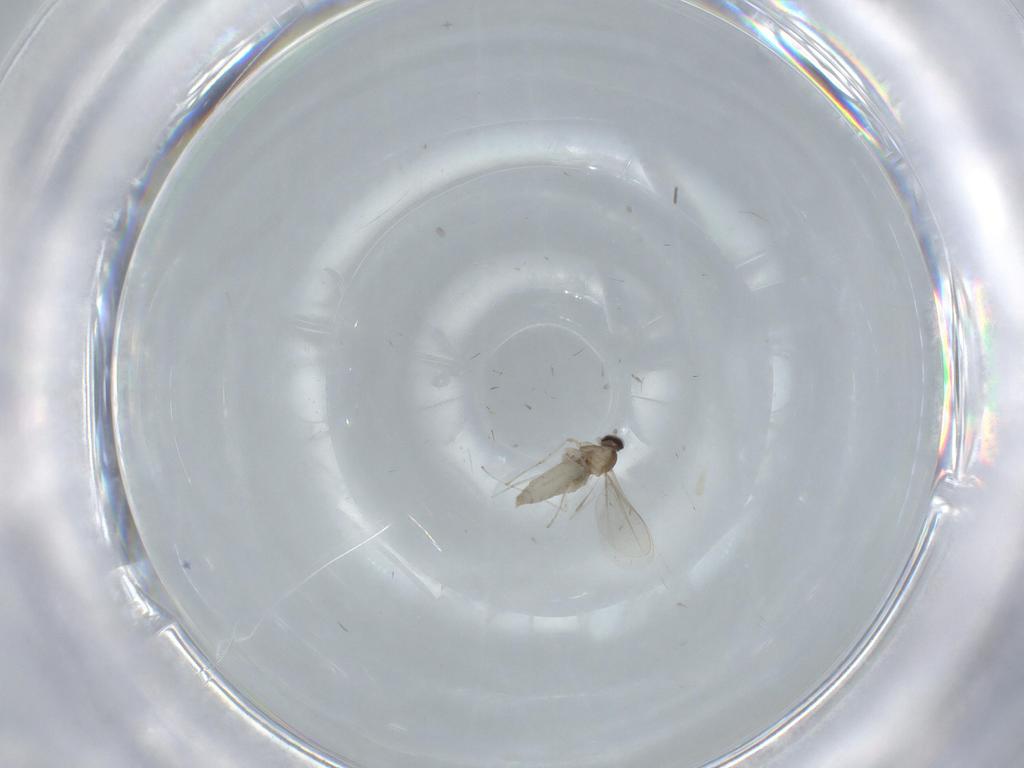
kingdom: Animalia
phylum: Arthropoda
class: Insecta
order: Diptera
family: Cecidomyiidae
